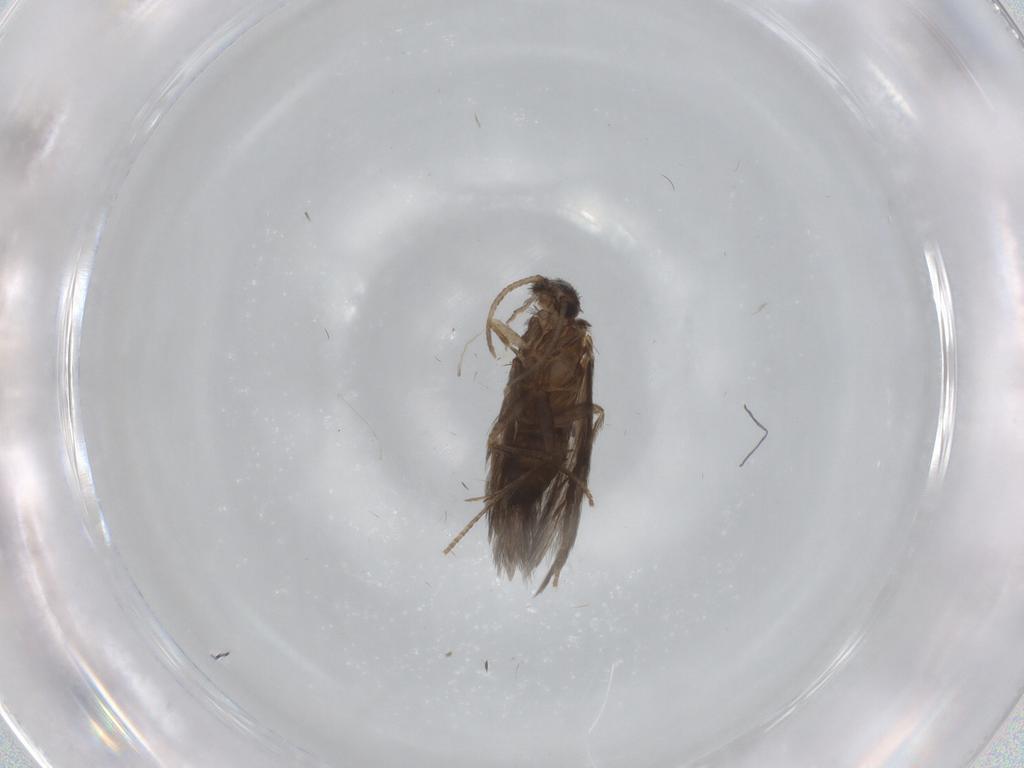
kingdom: Animalia
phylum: Arthropoda
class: Insecta
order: Trichoptera
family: Hydroptilidae
